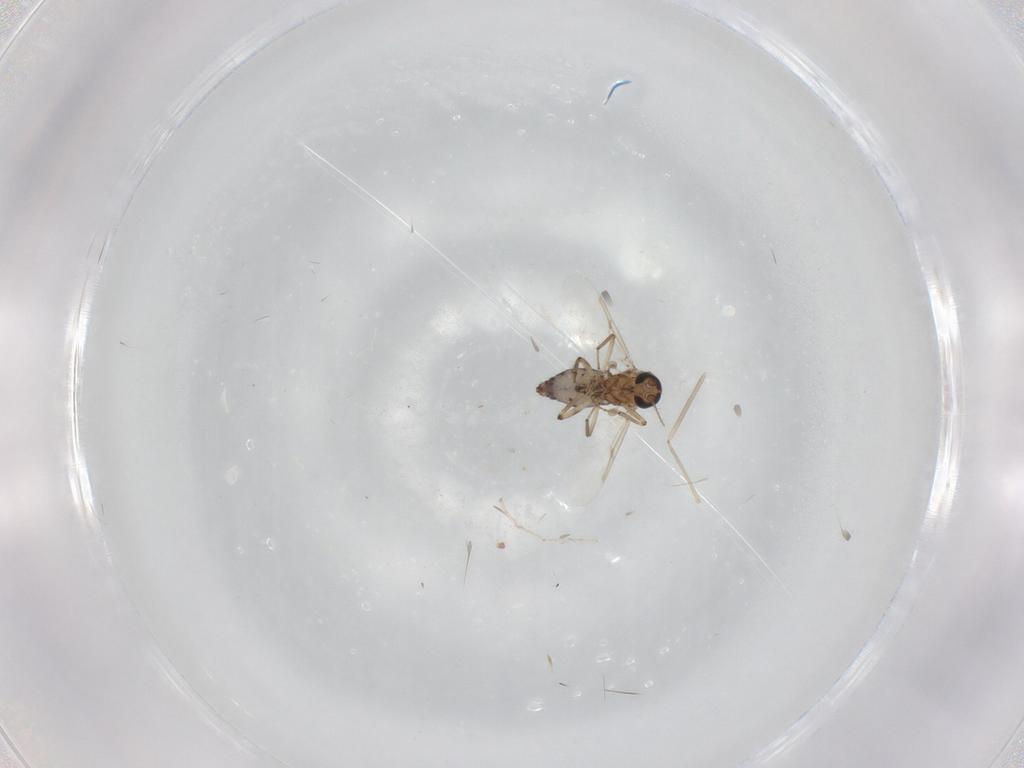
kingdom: Animalia
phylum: Arthropoda
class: Insecta
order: Diptera
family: Ceratopogonidae
